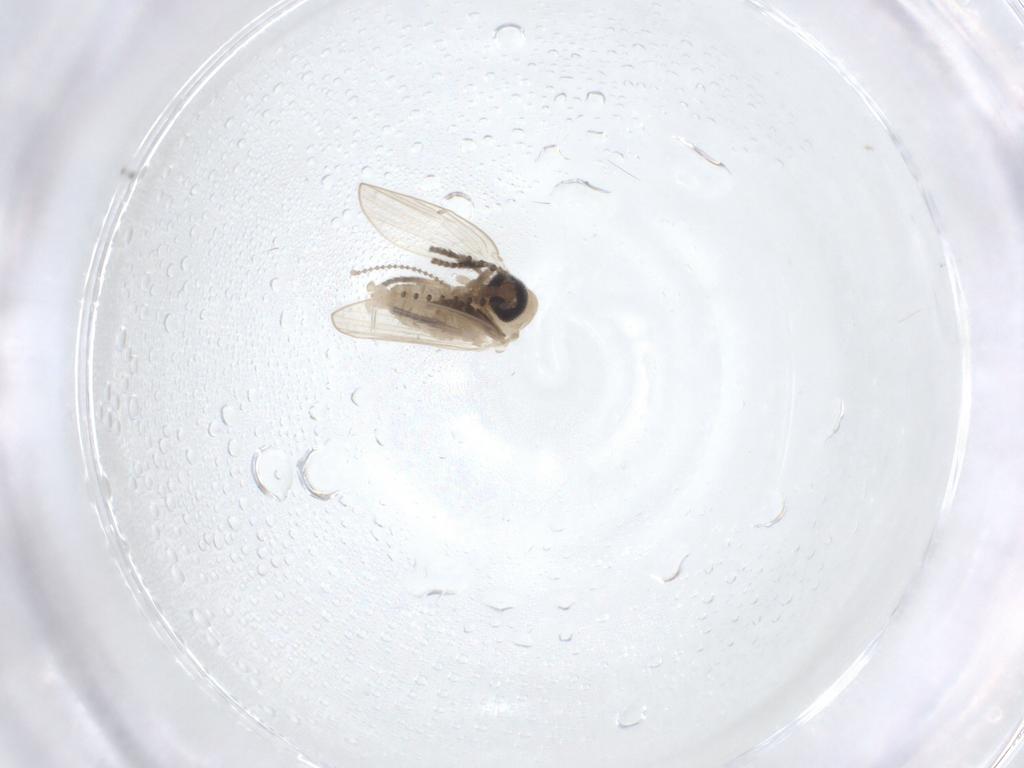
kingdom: Animalia
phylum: Arthropoda
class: Insecta
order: Diptera
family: Psychodidae
